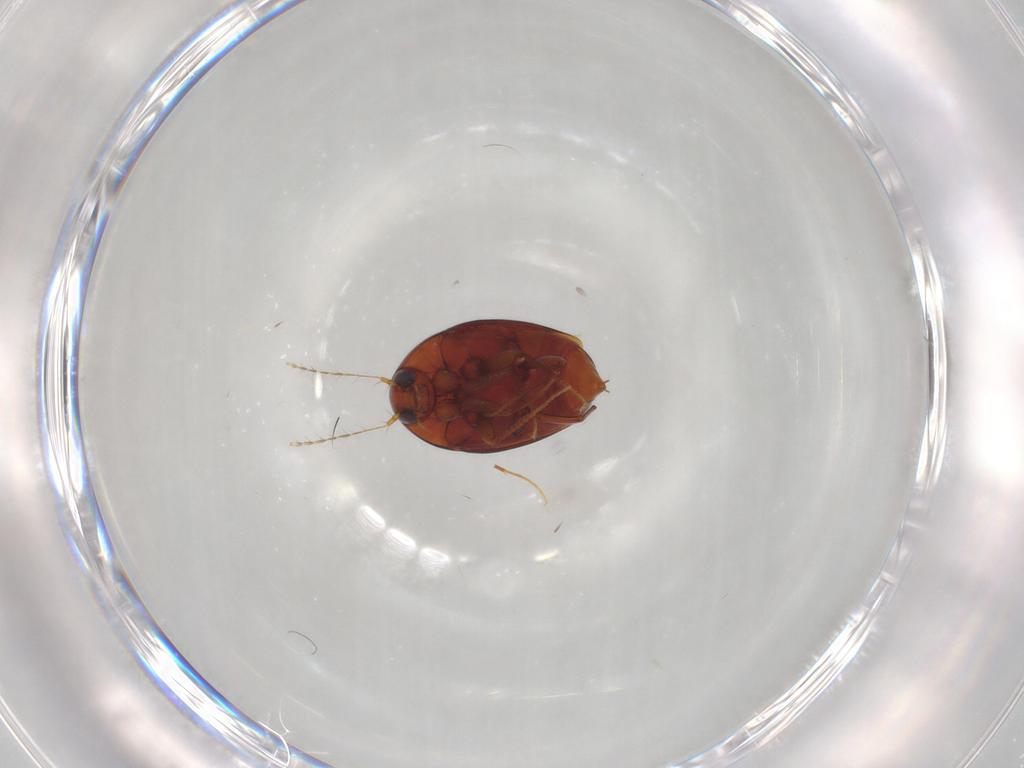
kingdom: Animalia
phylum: Arthropoda
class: Insecta
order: Coleoptera
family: Staphylinidae
